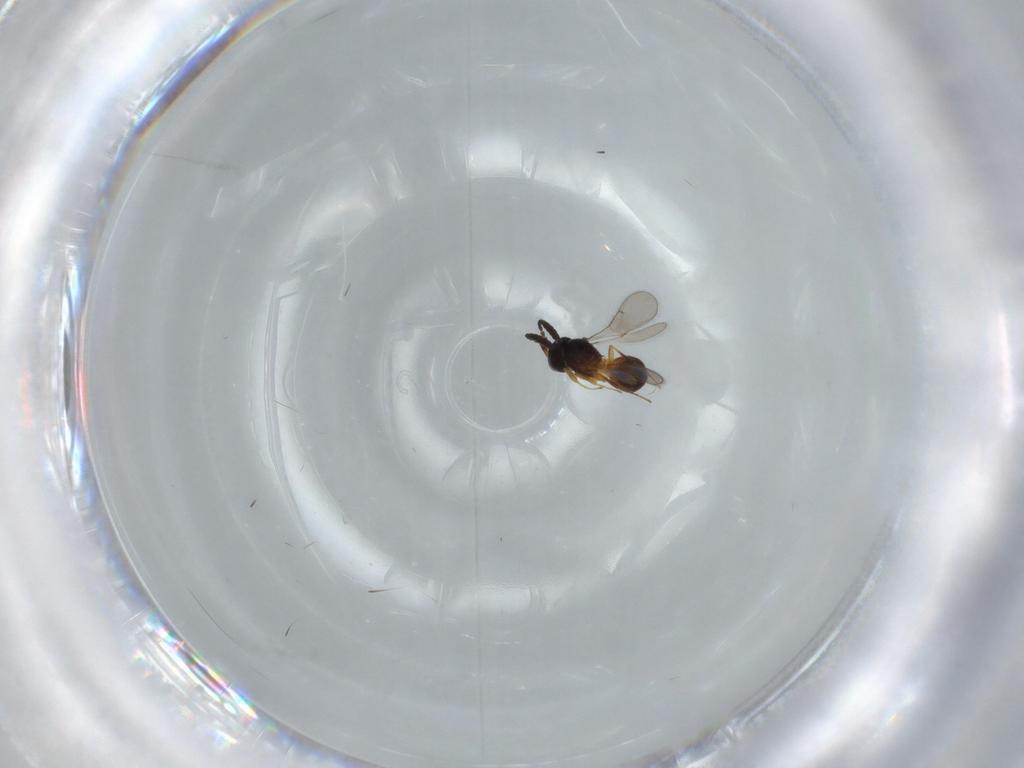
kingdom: Animalia
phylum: Arthropoda
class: Insecta
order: Hymenoptera
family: Scelionidae
